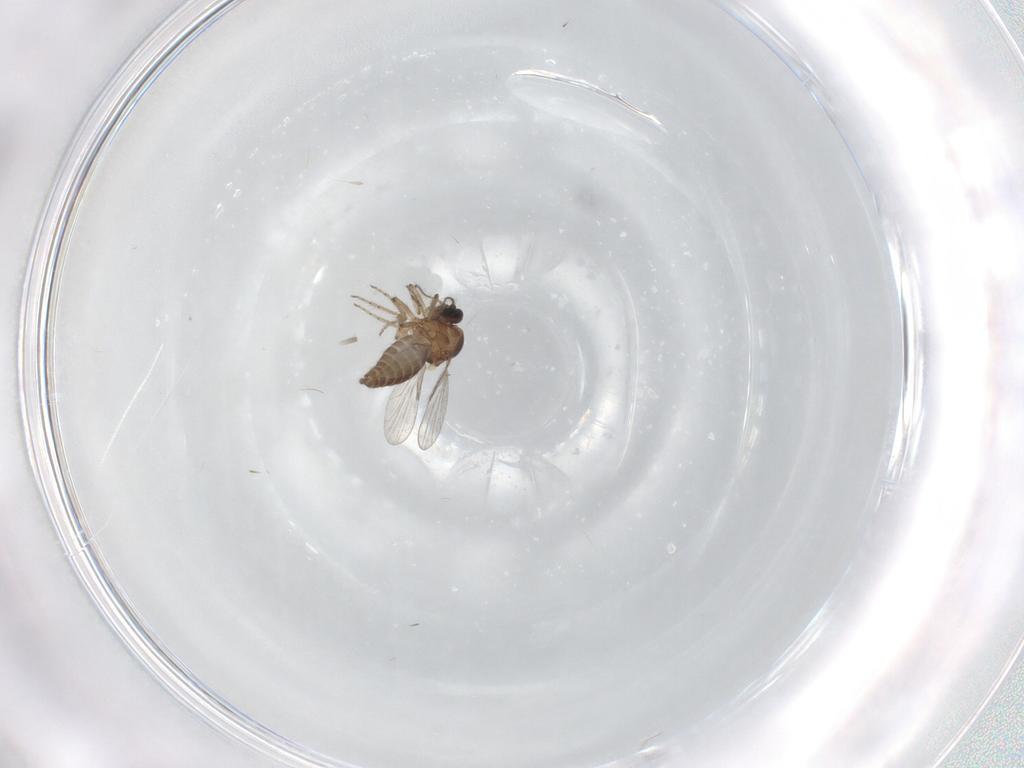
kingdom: Animalia
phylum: Arthropoda
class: Insecta
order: Diptera
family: Ceratopogonidae
